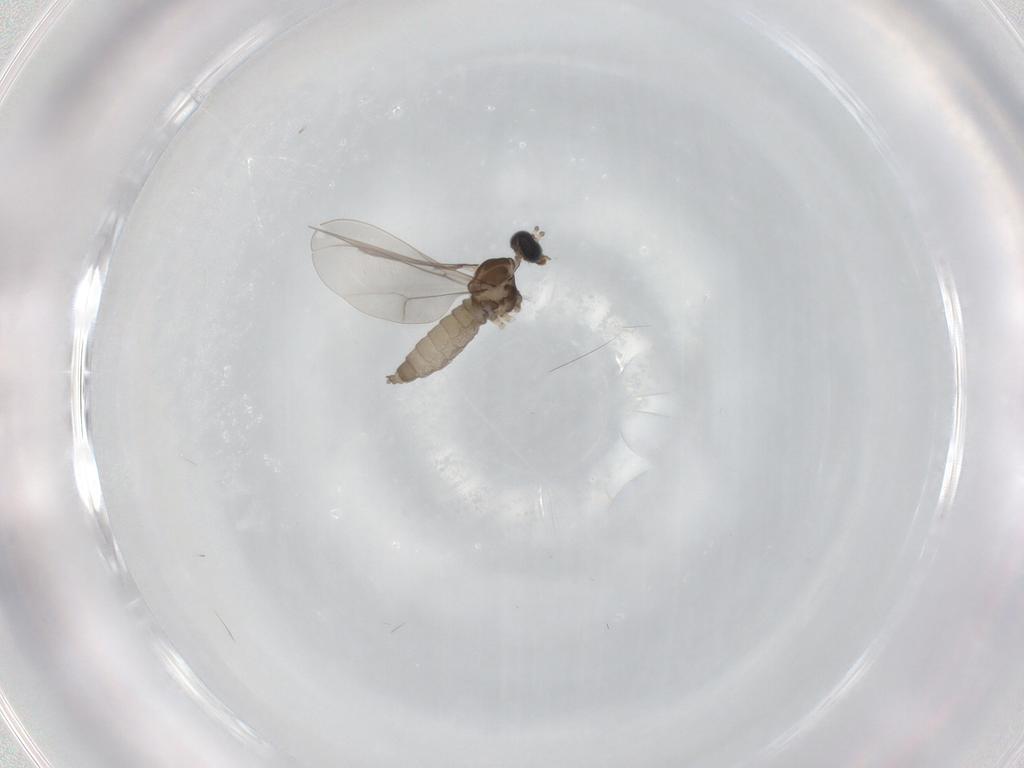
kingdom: Animalia
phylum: Arthropoda
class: Insecta
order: Diptera
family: Cecidomyiidae
